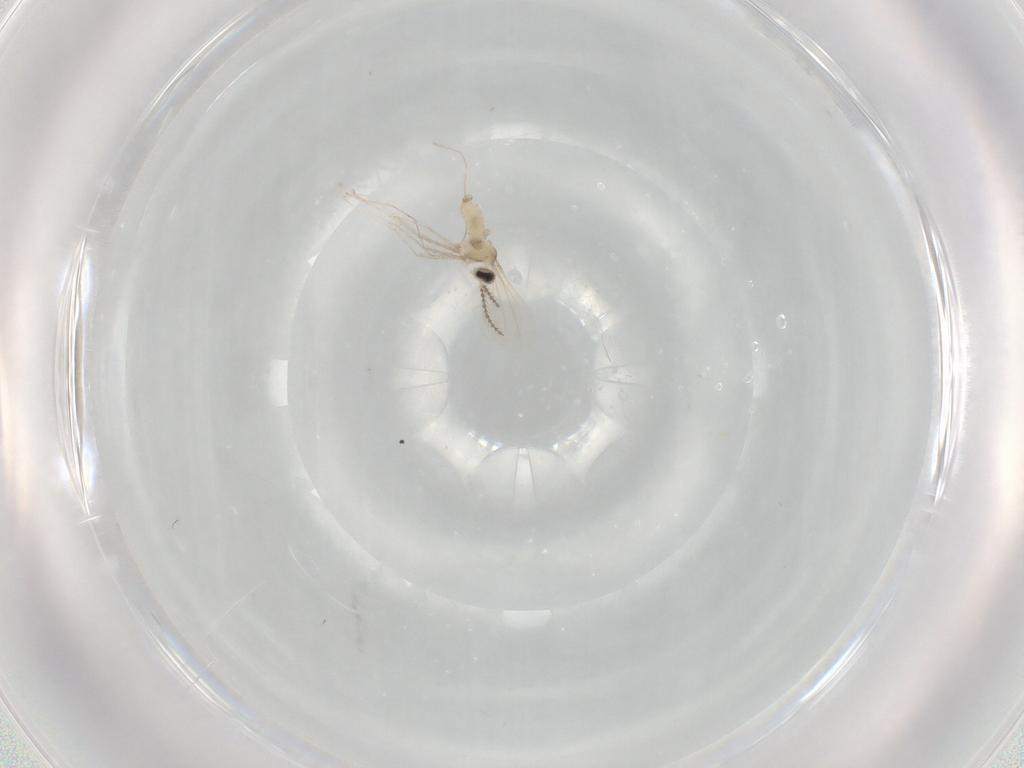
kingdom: Animalia
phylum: Arthropoda
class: Insecta
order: Diptera
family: Cecidomyiidae
